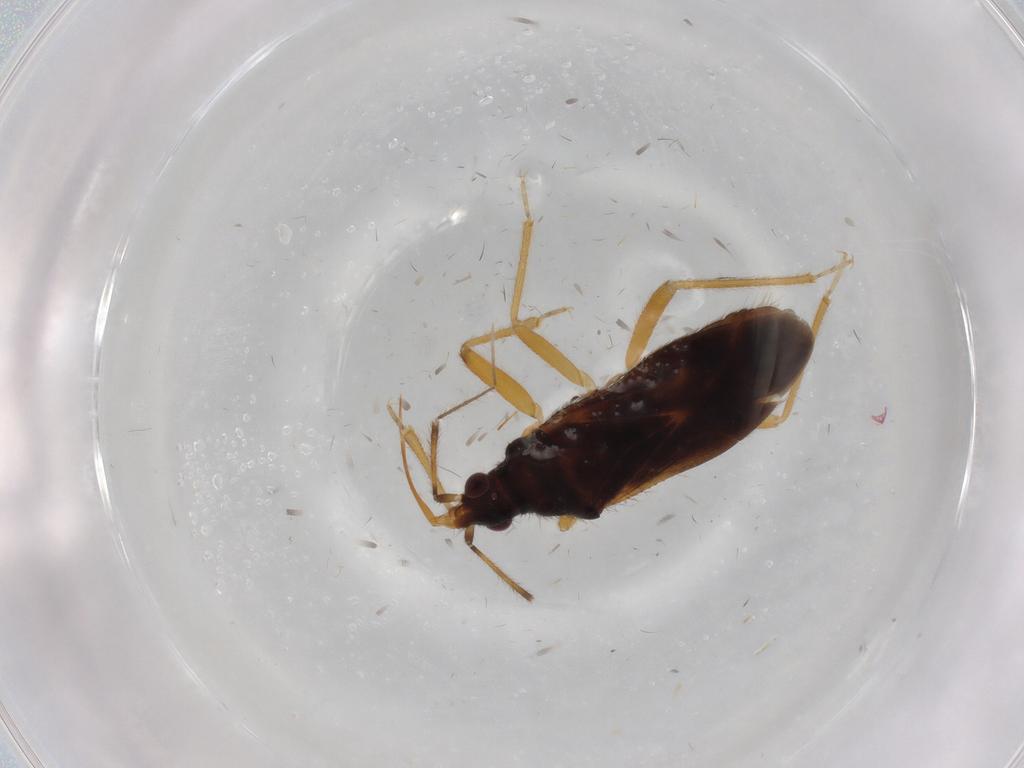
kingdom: Animalia
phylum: Arthropoda
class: Insecta
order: Hemiptera
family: Anthocoridae
